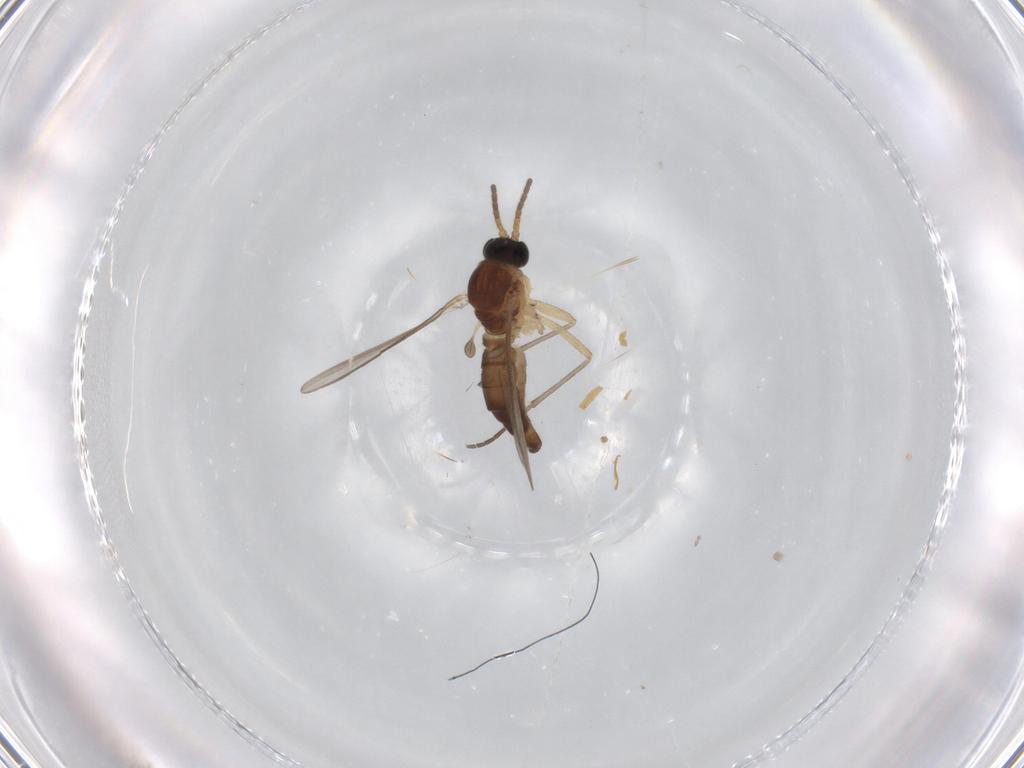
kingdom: Animalia
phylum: Arthropoda
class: Insecta
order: Diptera
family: Sciaridae
